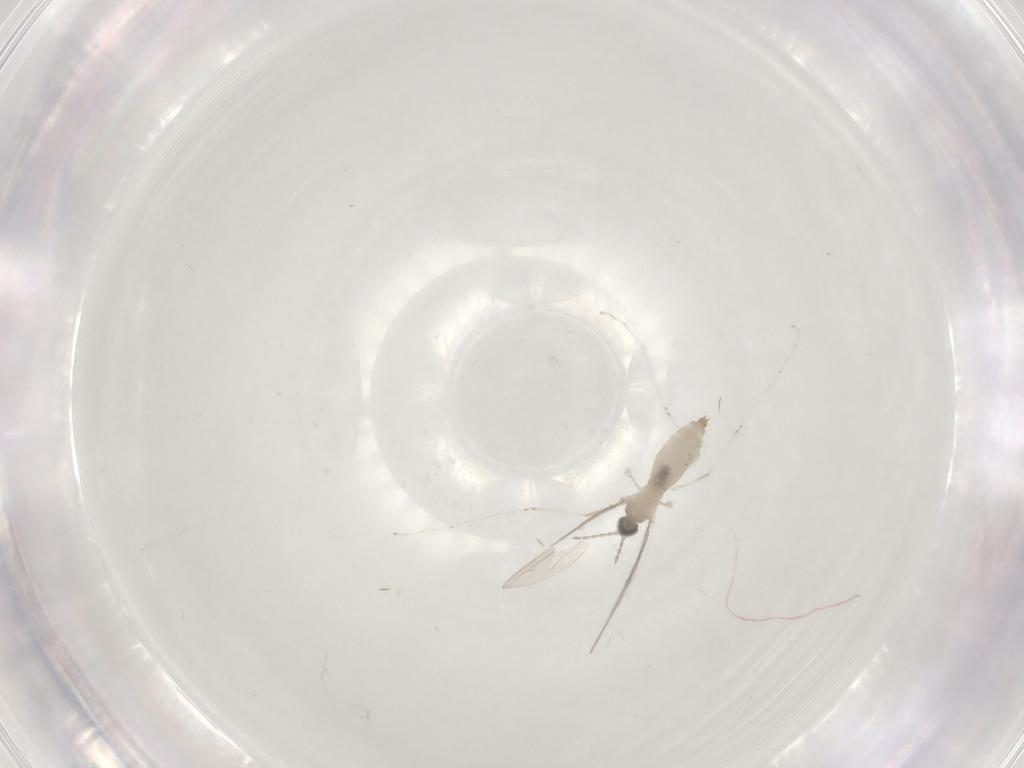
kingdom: Animalia
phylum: Arthropoda
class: Insecta
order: Diptera
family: Cecidomyiidae
